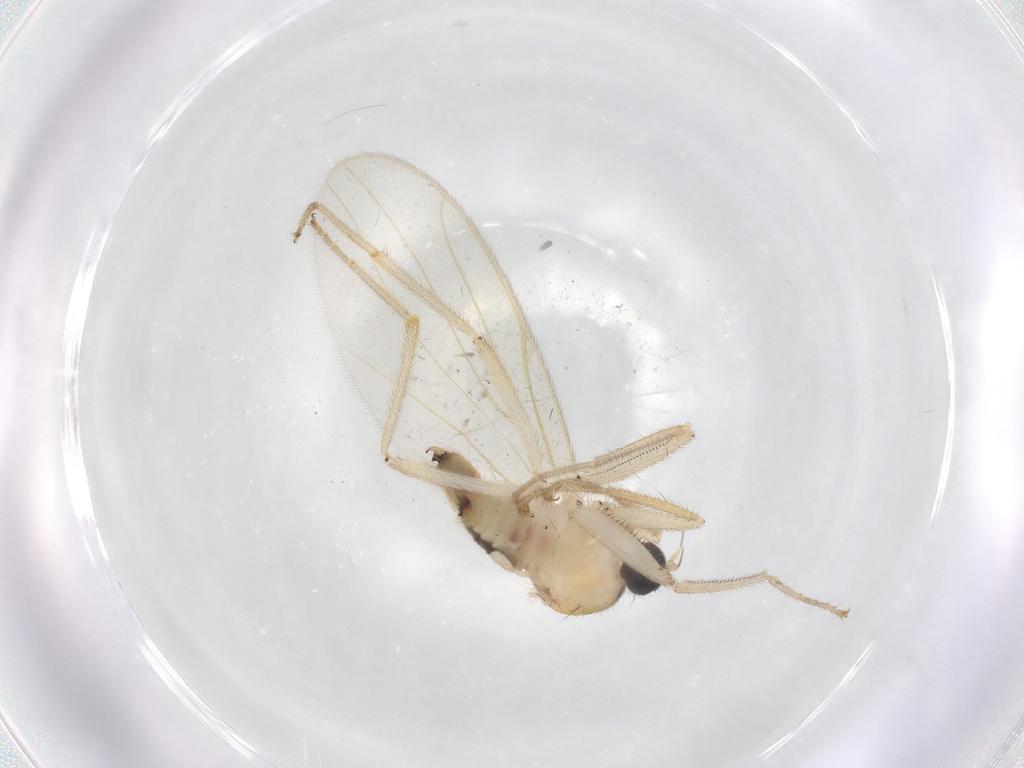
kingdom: Animalia
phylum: Arthropoda
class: Insecta
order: Diptera
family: Hybotidae
